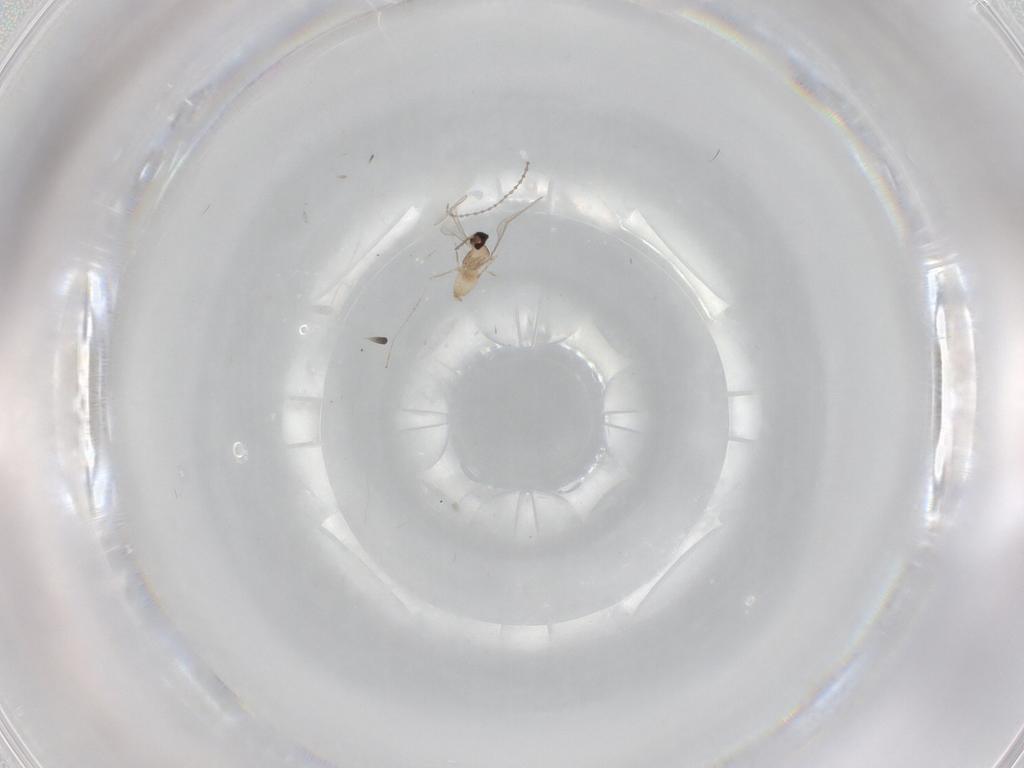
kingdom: Animalia
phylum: Arthropoda
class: Insecta
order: Diptera
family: Cecidomyiidae
